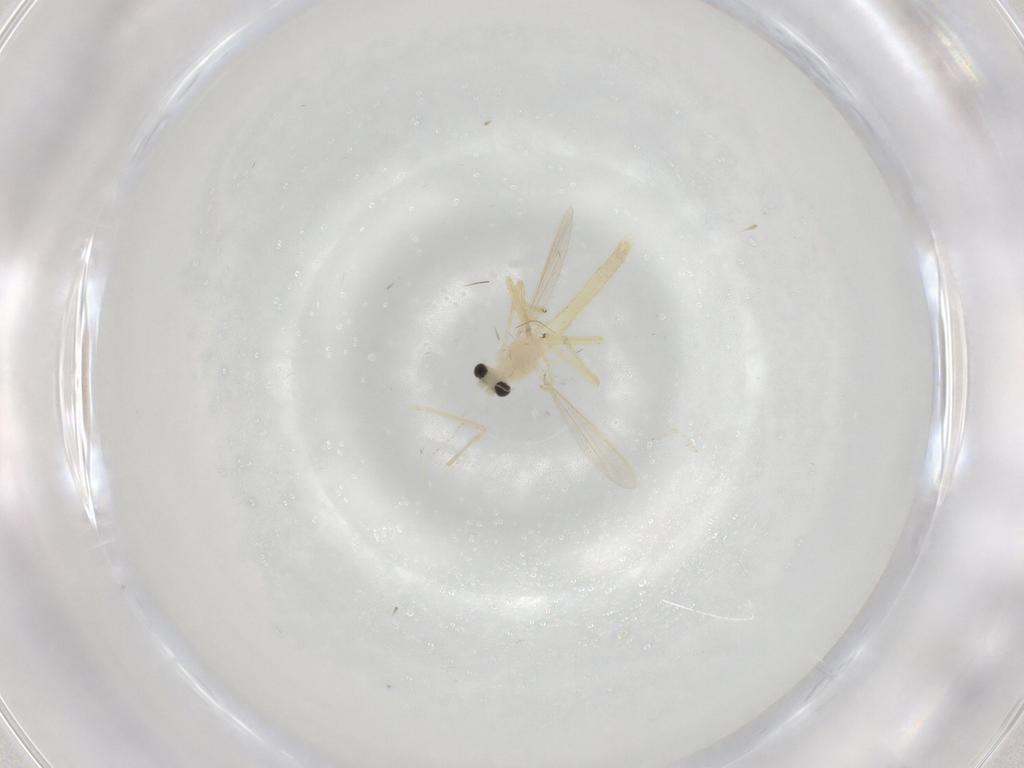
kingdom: Animalia
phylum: Arthropoda
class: Insecta
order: Diptera
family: Chironomidae
